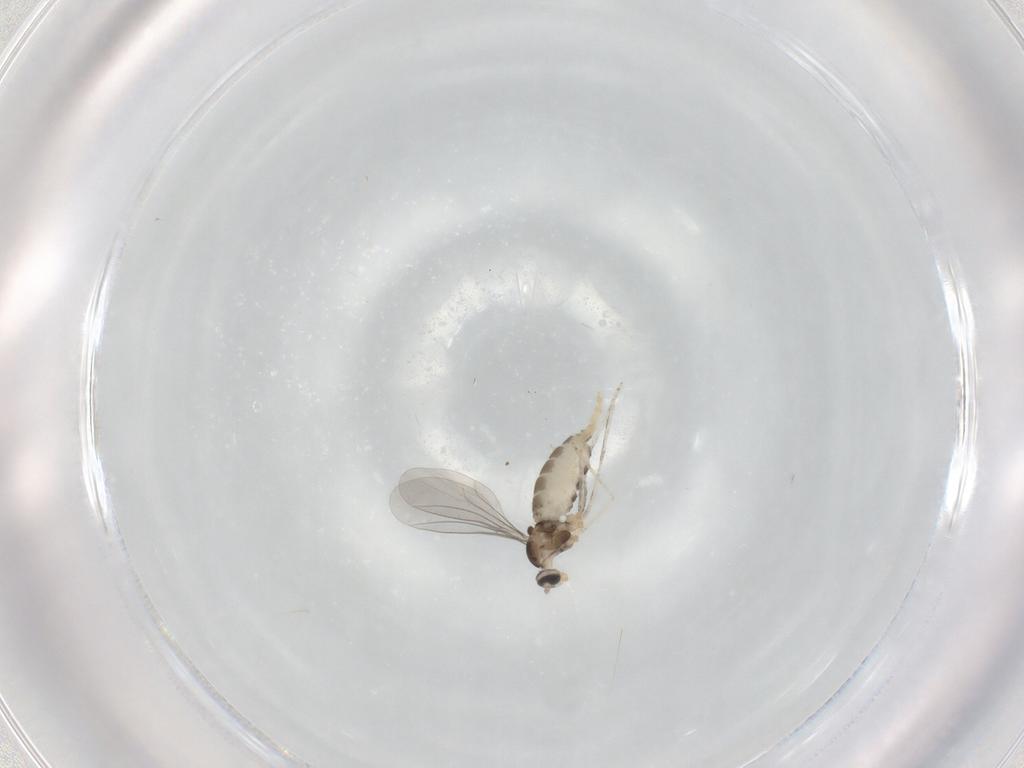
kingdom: Animalia
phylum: Arthropoda
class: Insecta
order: Diptera
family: Cecidomyiidae
